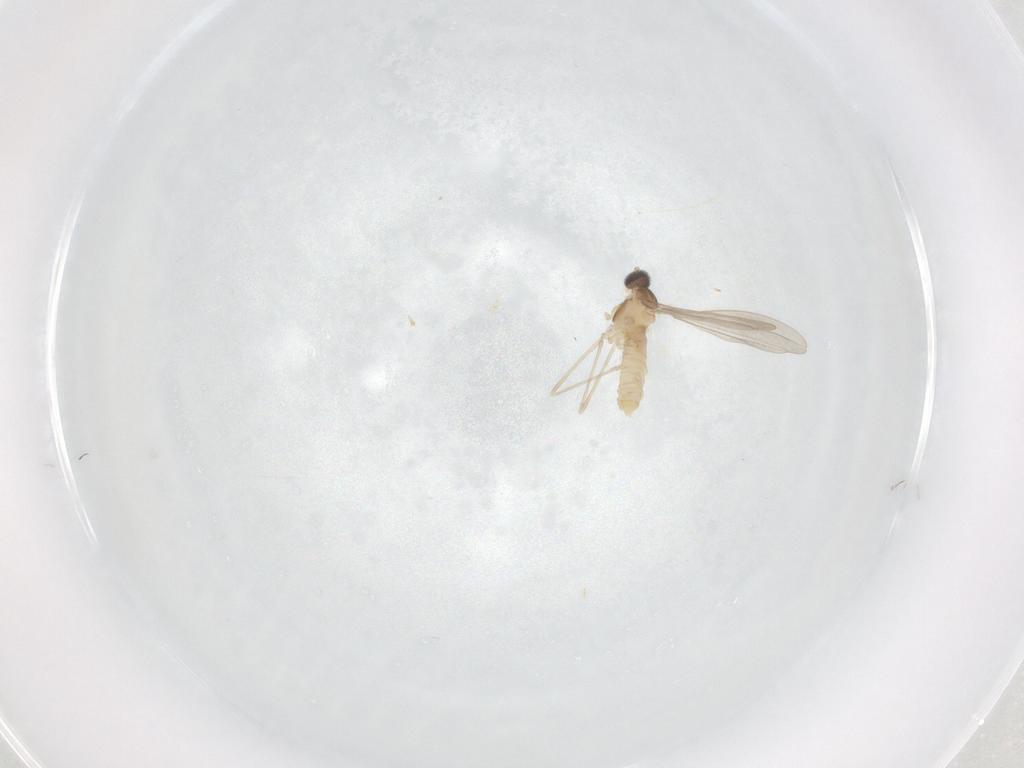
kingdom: Animalia
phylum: Arthropoda
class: Insecta
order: Diptera
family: Cecidomyiidae
